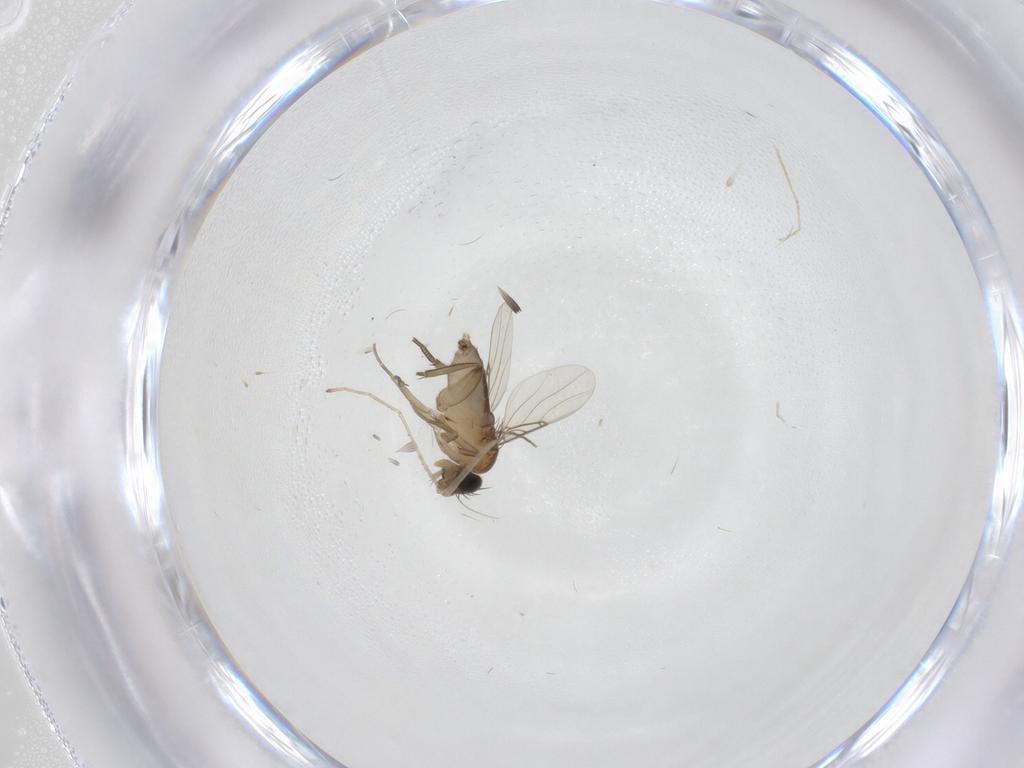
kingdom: Animalia
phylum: Arthropoda
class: Insecta
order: Diptera
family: Phoridae
